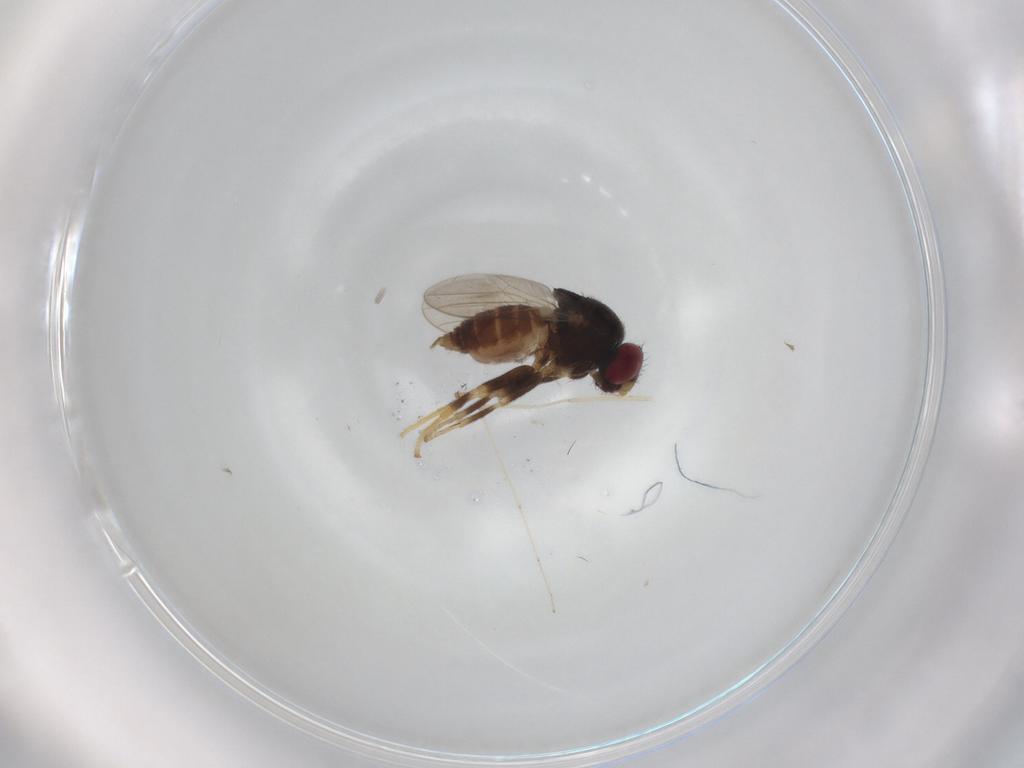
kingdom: Animalia
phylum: Arthropoda
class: Insecta
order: Diptera
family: Chloropidae
